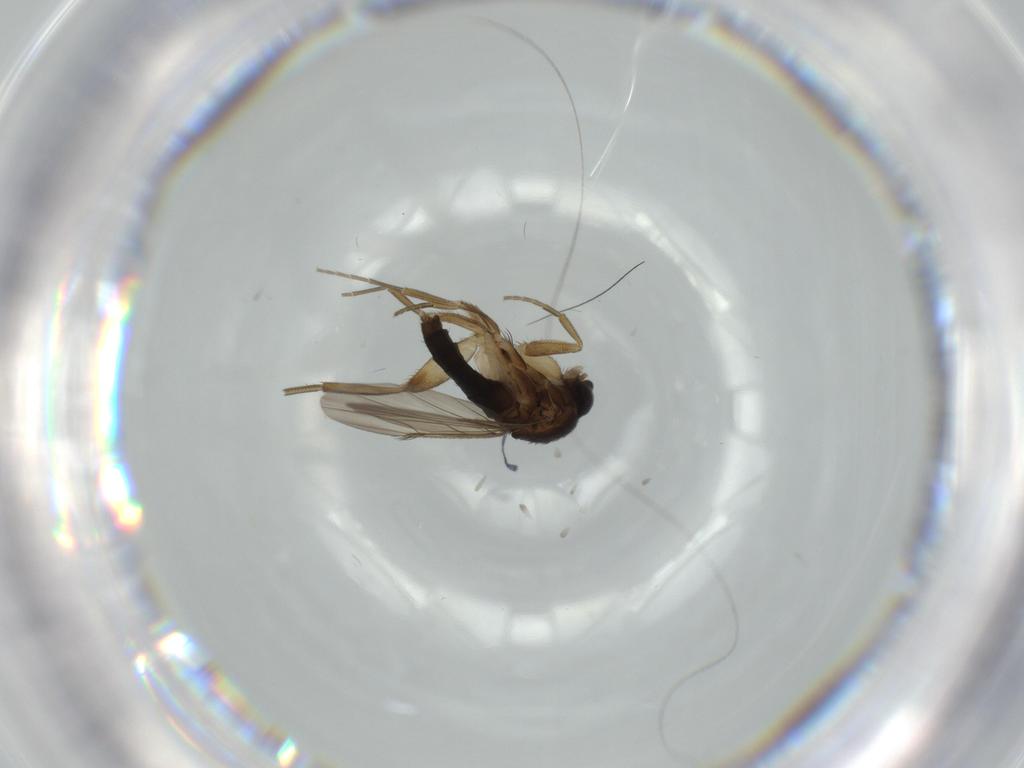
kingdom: Animalia
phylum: Arthropoda
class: Insecta
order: Diptera
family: Phoridae
